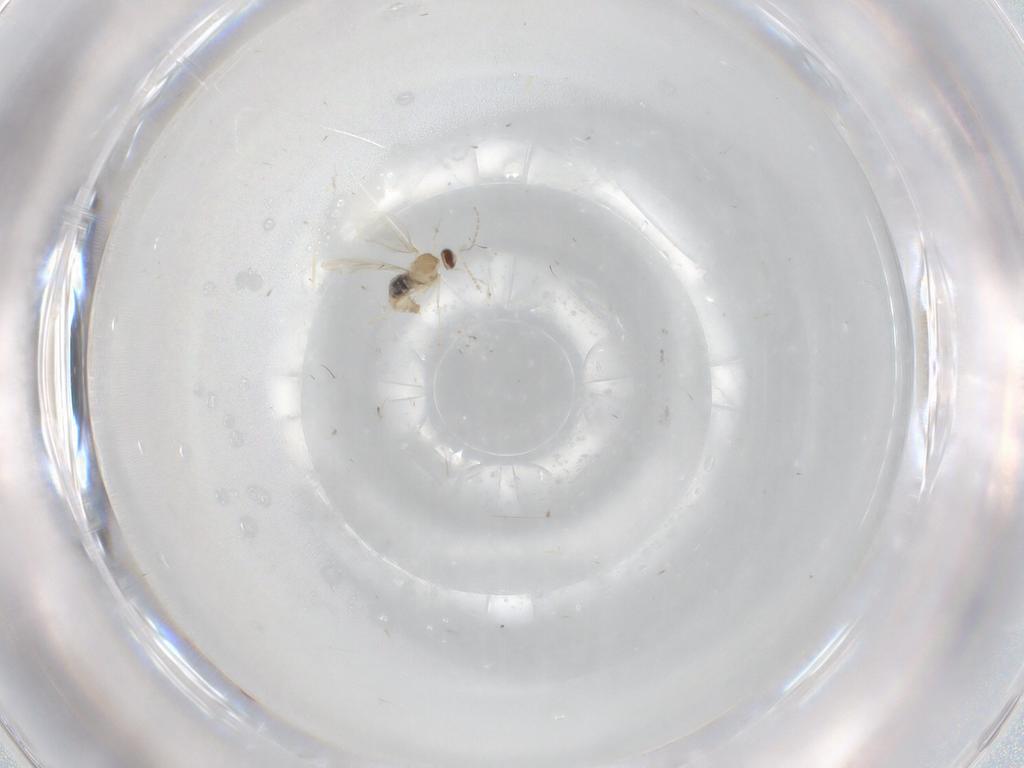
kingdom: Animalia
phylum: Arthropoda
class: Insecta
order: Diptera
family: Cecidomyiidae
